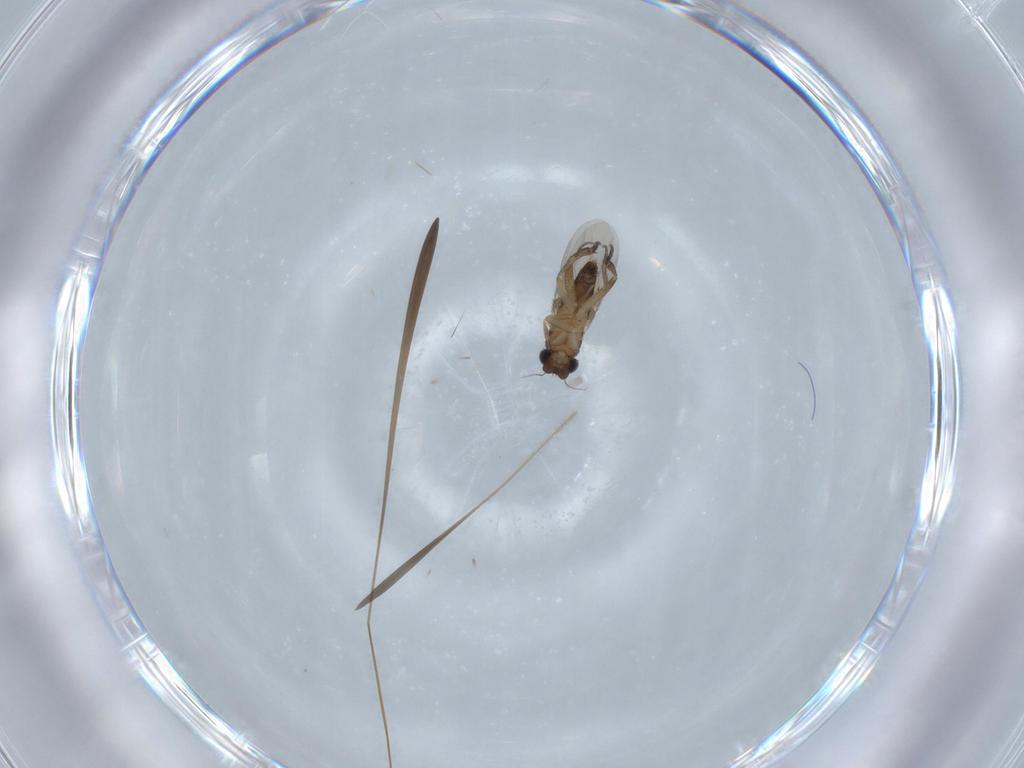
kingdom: Animalia
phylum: Arthropoda
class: Insecta
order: Diptera
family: Phoridae
